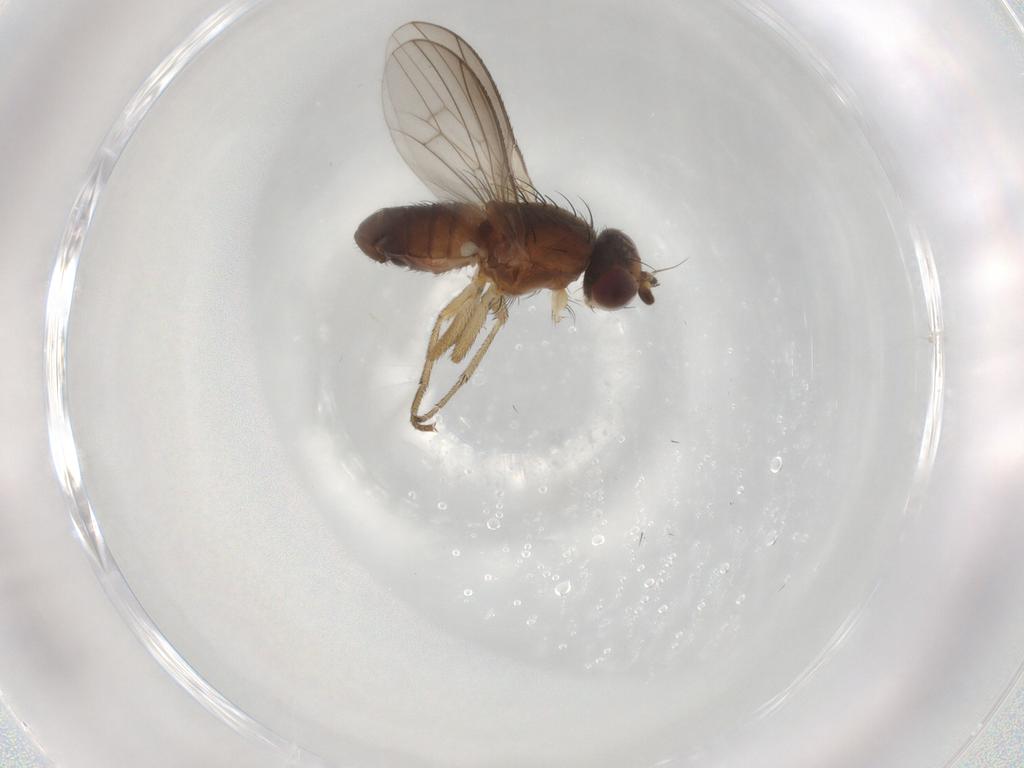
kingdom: Animalia
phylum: Arthropoda
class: Insecta
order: Diptera
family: Heleomyzidae
